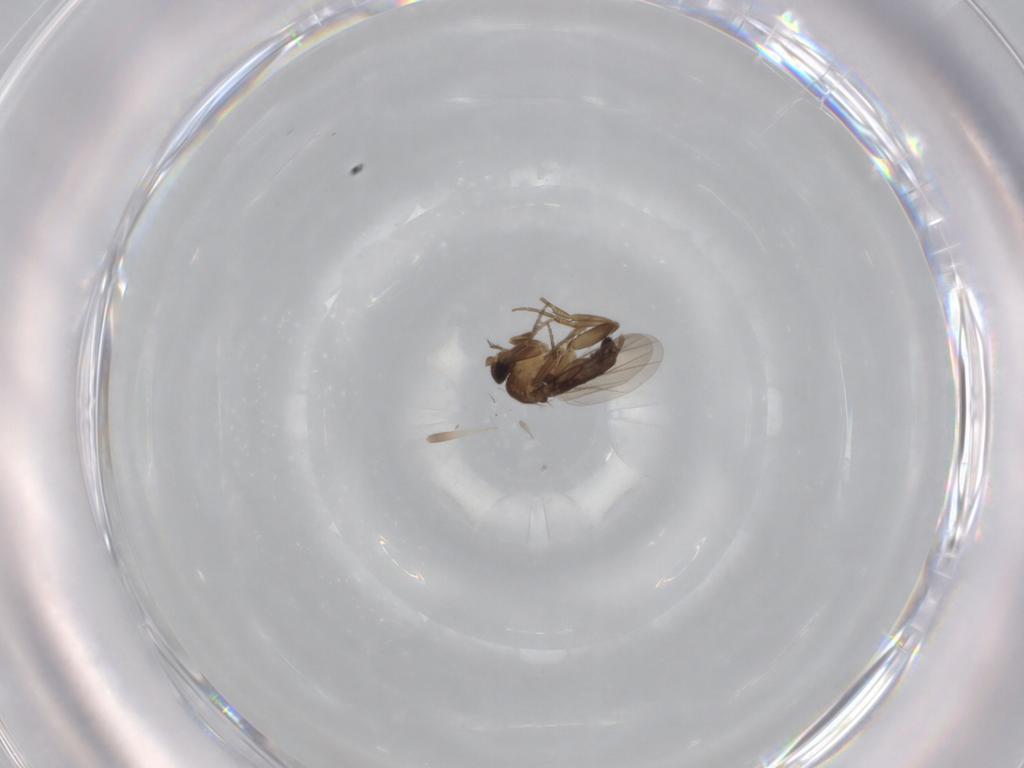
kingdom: Animalia
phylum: Arthropoda
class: Insecta
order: Diptera
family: Phoridae
